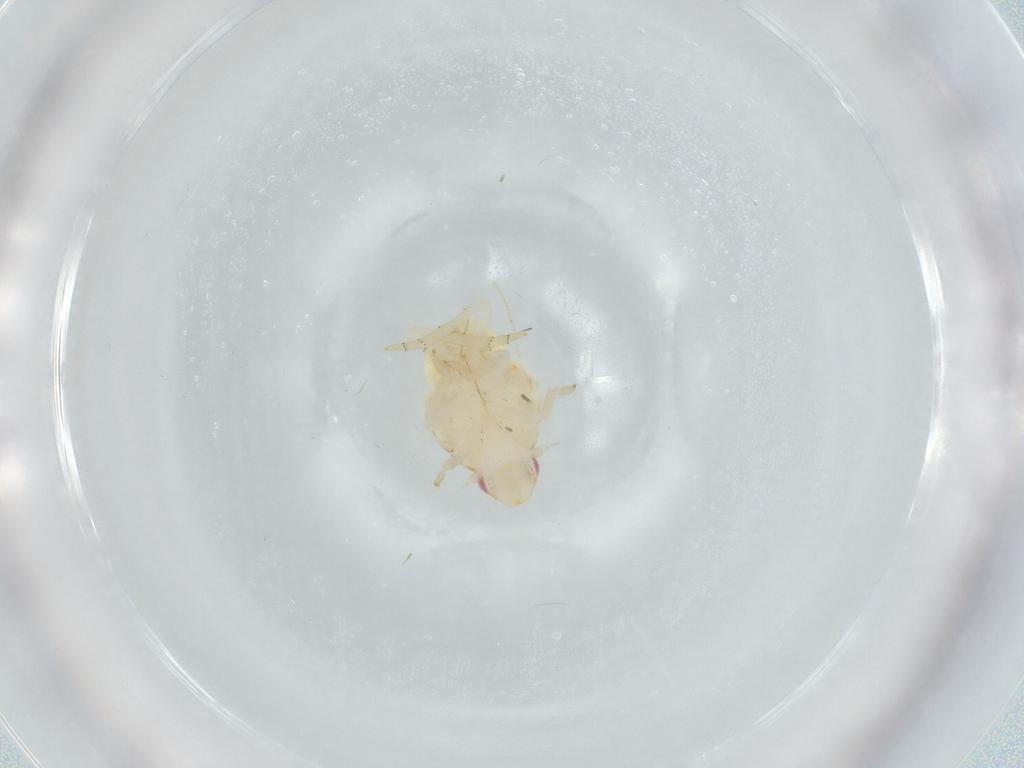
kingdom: Animalia
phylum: Arthropoda
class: Insecta
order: Hemiptera
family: Flatidae
